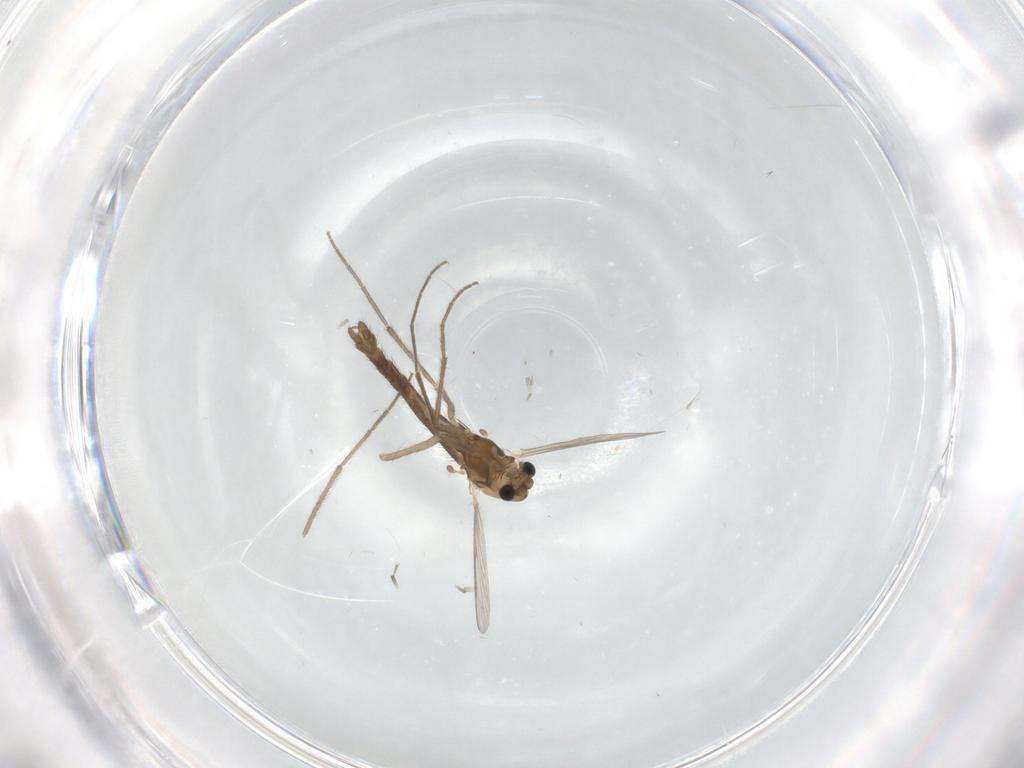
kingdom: Animalia
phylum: Arthropoda
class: Insecta
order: Diptera
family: Chironomidae
